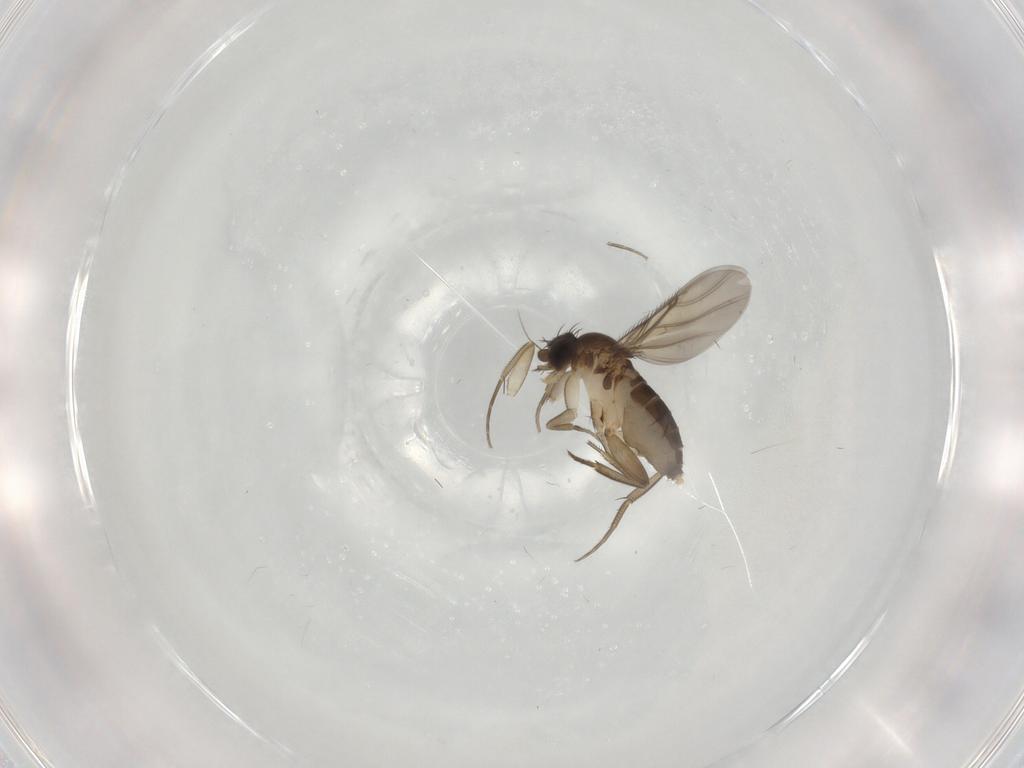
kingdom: Animalia
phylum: Arthropoda
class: Insecta
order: Diptera
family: Phoridae
